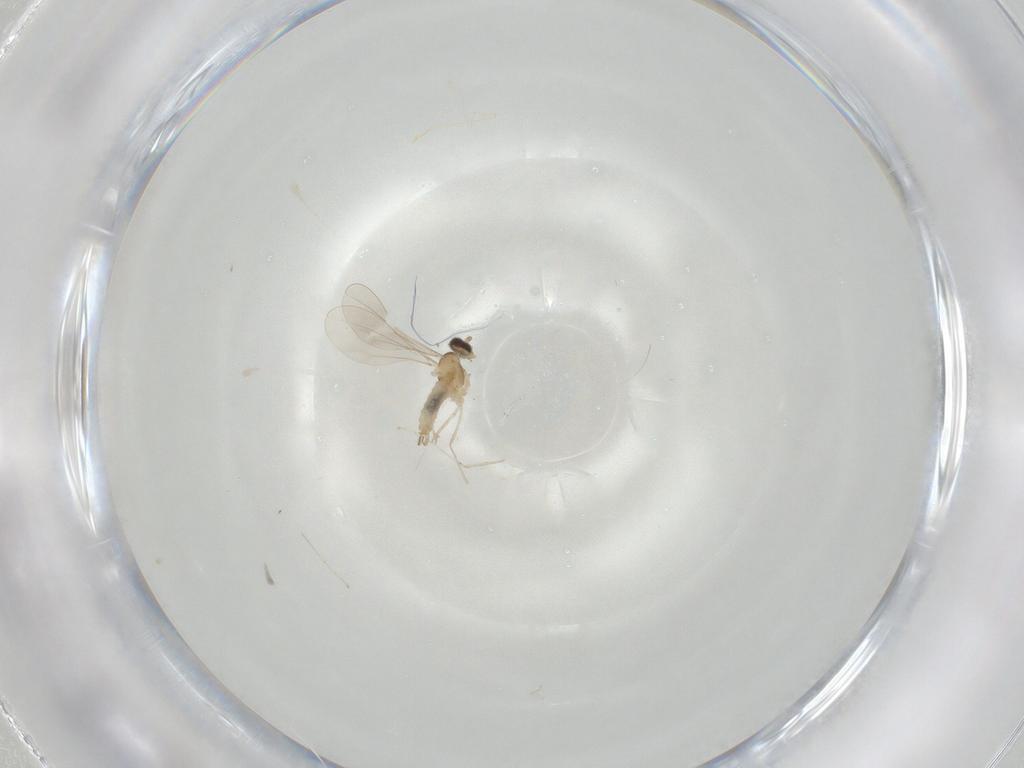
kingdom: Animalia
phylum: Arthropoda
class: Insecta
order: Diptera
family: Cecidomyiidae
